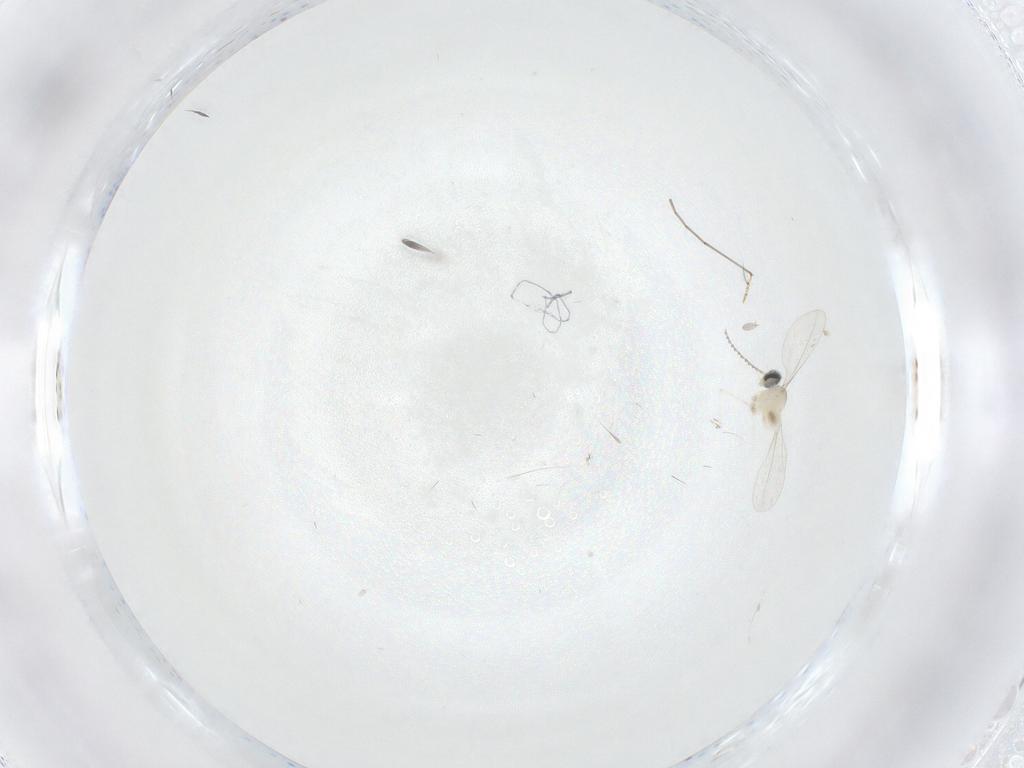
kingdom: Animalia
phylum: Arthropoda
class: Insecta
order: Diptera
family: Cecidomyiidae
